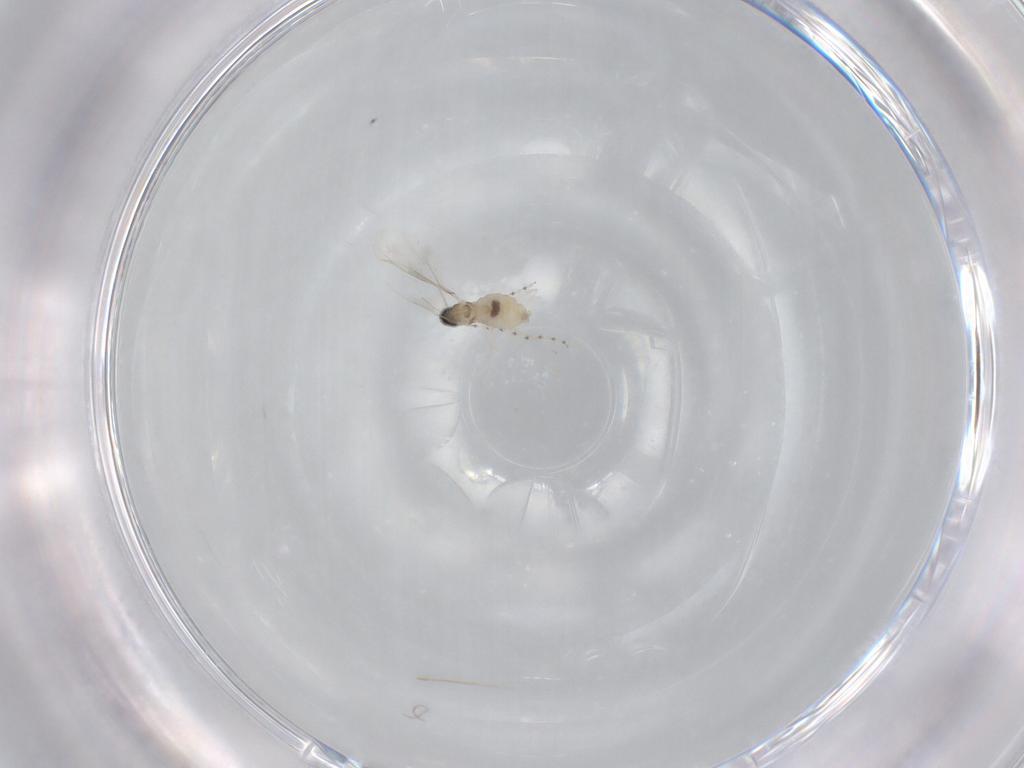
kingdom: Animalia
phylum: Arthropoda
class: Insecta
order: Diptera
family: Cecidomyiidae
